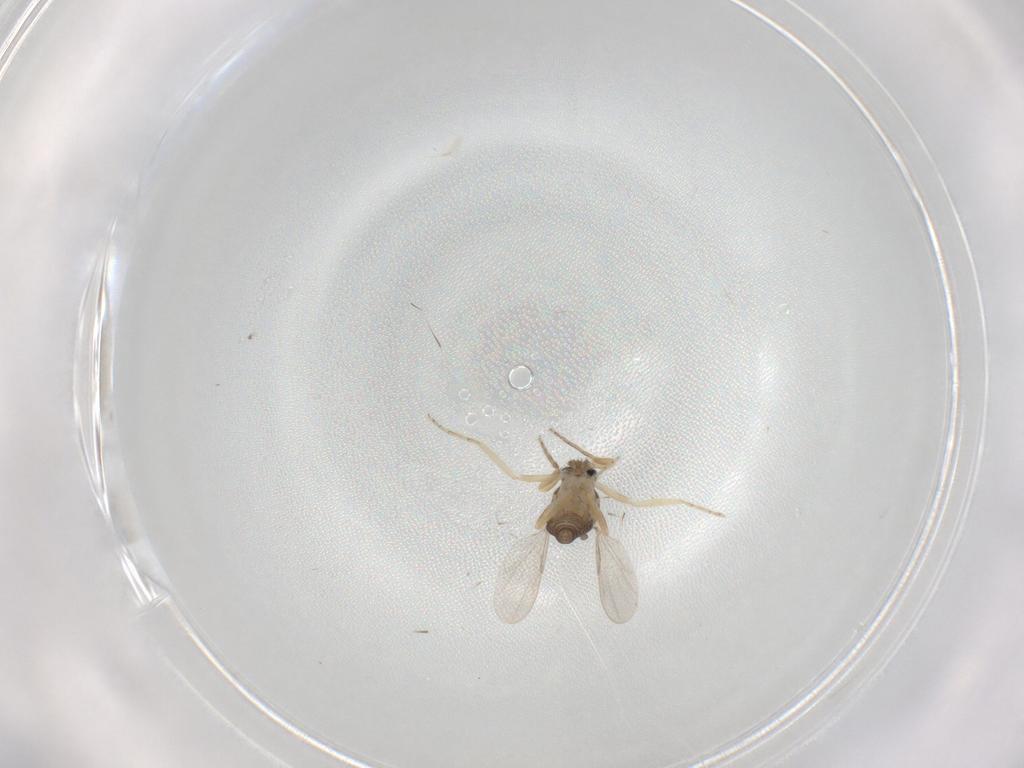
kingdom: Animalia
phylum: Arthropoda
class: Insecta
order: Diptera
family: Ceratopogonidae
